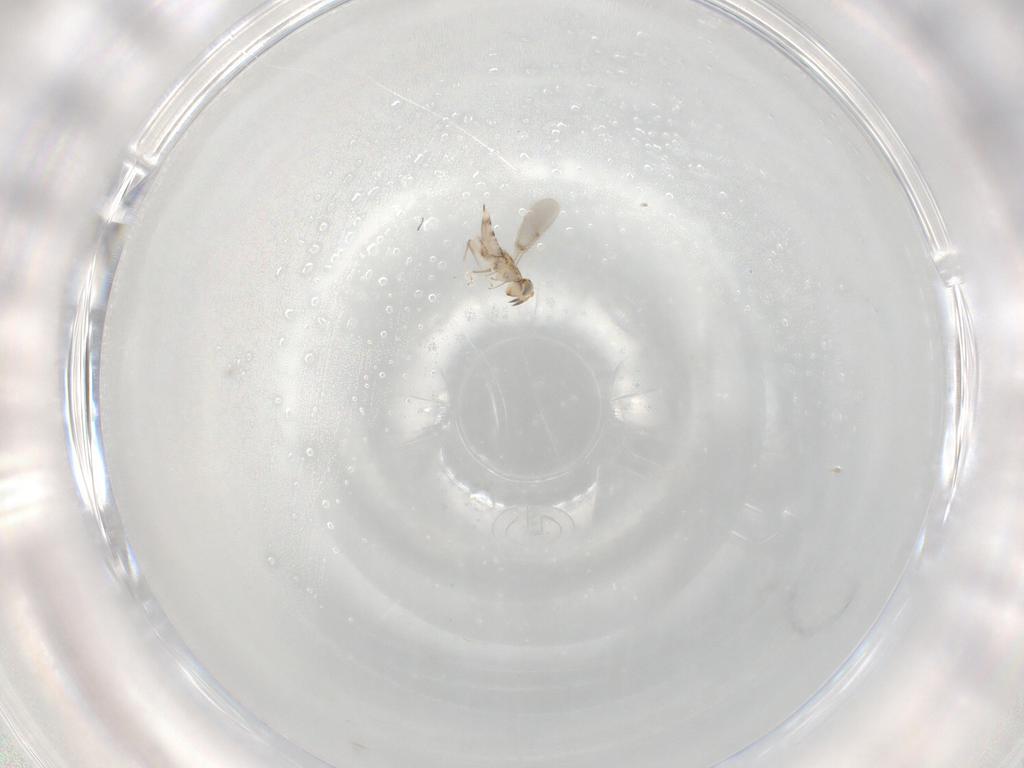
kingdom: Animalia
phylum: Arthropoda
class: Insecta
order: Hymenoptera
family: Aphelinidae
